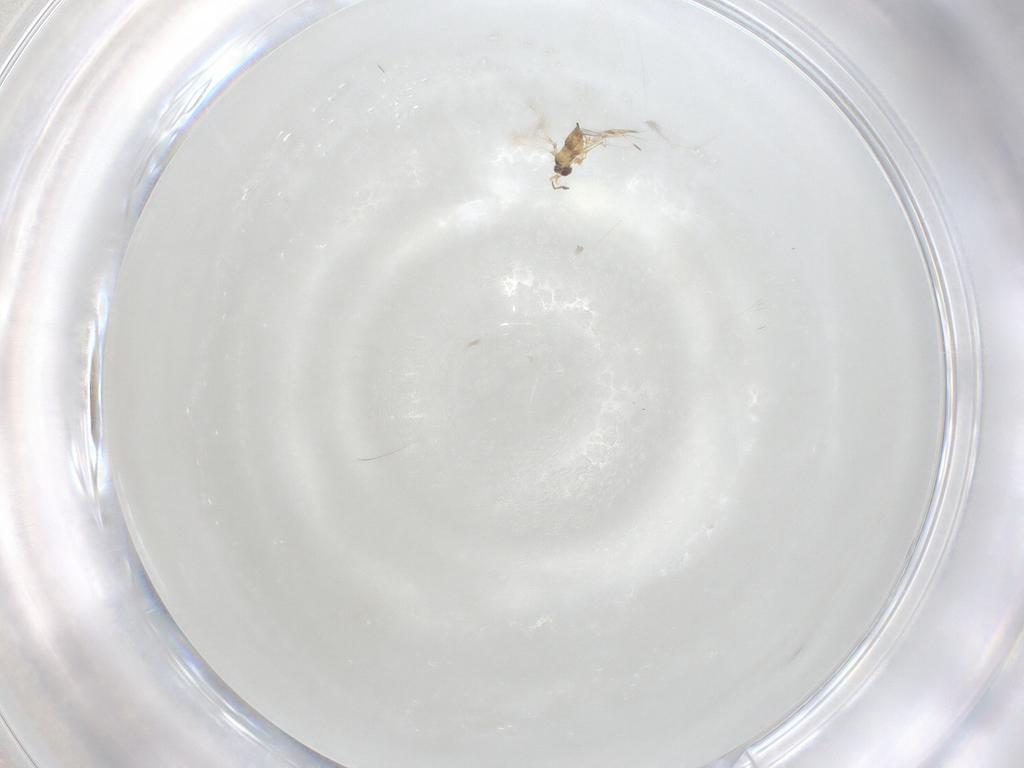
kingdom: Animalia
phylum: Arthropoda
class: Insecta
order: Hymenoptera
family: Mymaridae
